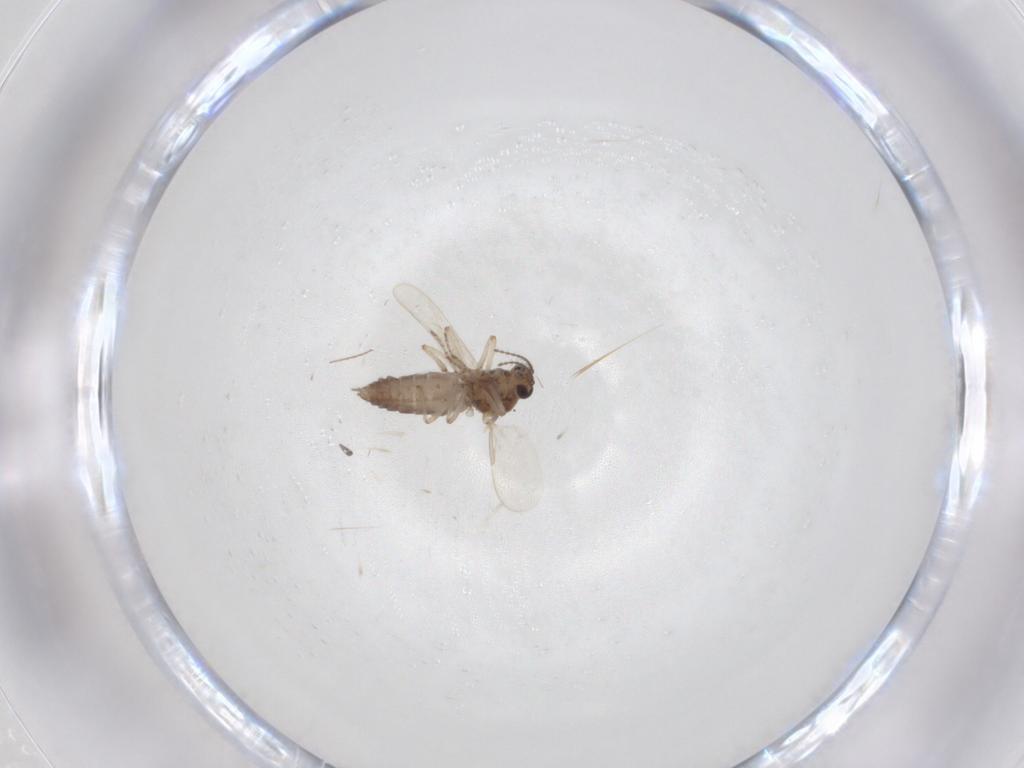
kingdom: Animalia
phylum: Arthropoda
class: Insecta
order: Diptera
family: Ceratopogonidae
